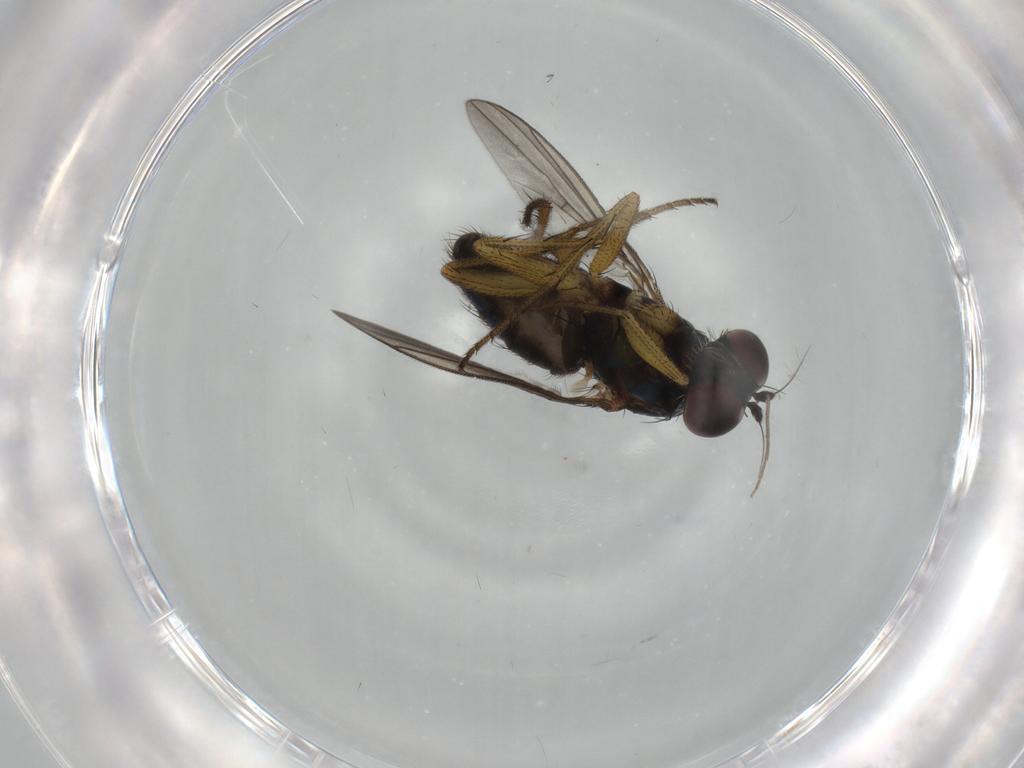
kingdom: Animalia
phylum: Arthropoda
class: Insecta
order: Diptera
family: Dolichopodidae
